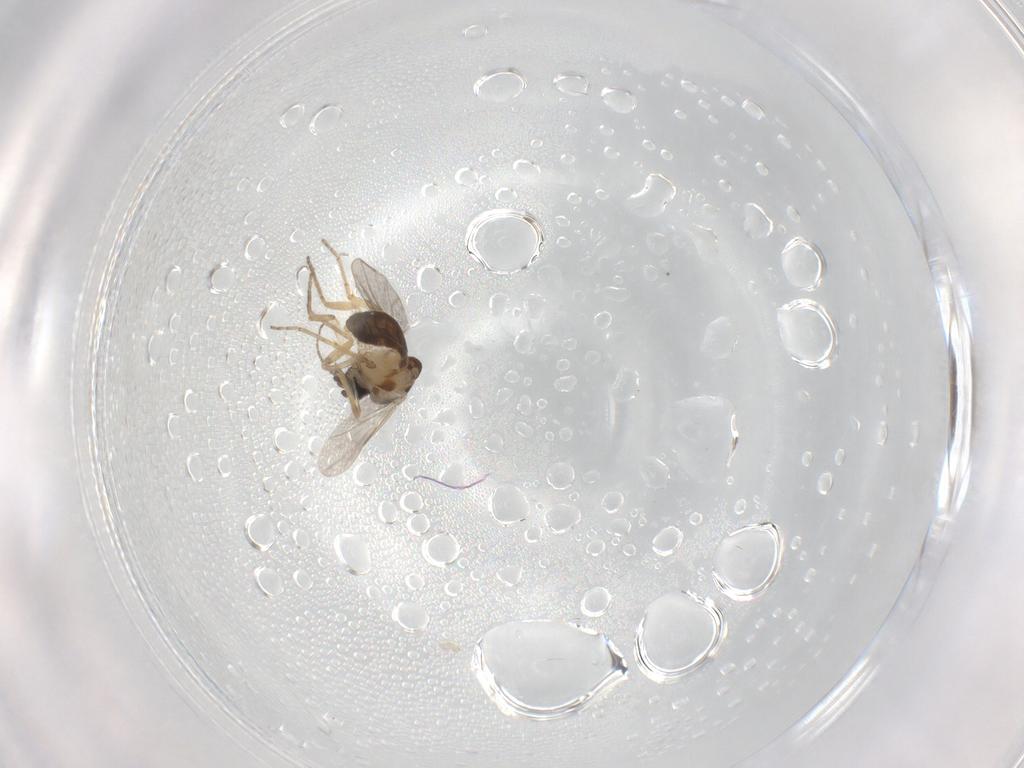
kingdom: Animalia
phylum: Arthropoda
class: Insecta
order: Diptera
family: Ceratopogonidae
